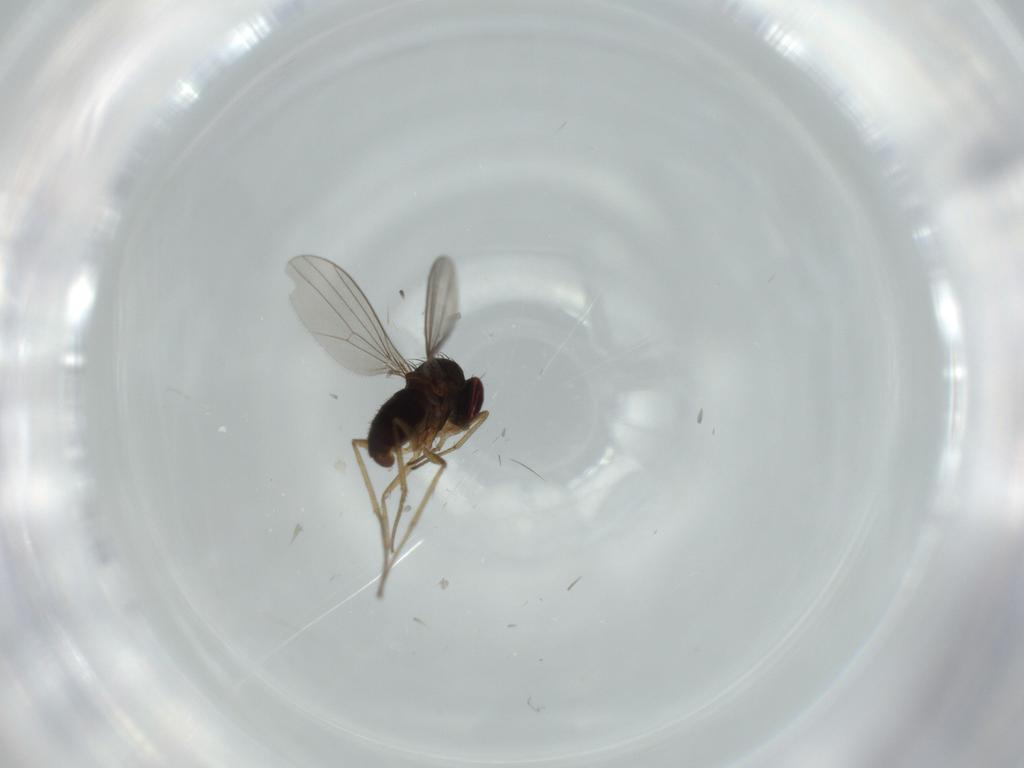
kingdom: Animalia
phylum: Arthropoda
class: Insecta
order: Diptera
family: Dolichopodidae
